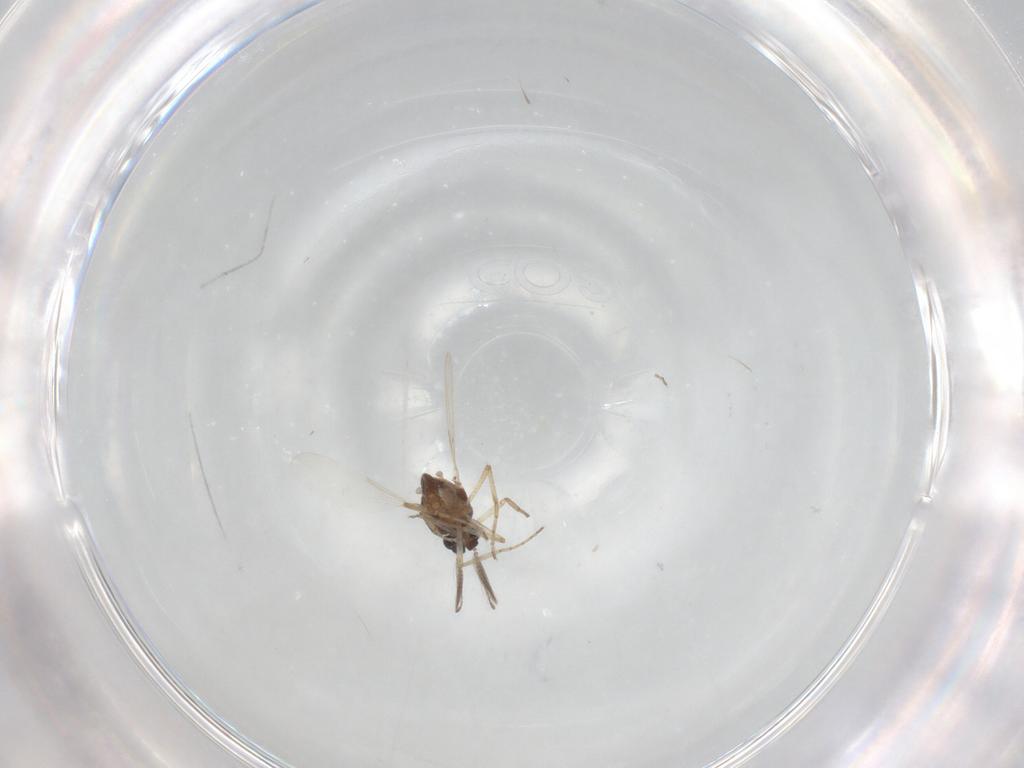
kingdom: Animalia
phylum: Arthropoda
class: Insecta
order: Diptera
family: Ceratopogonidae
